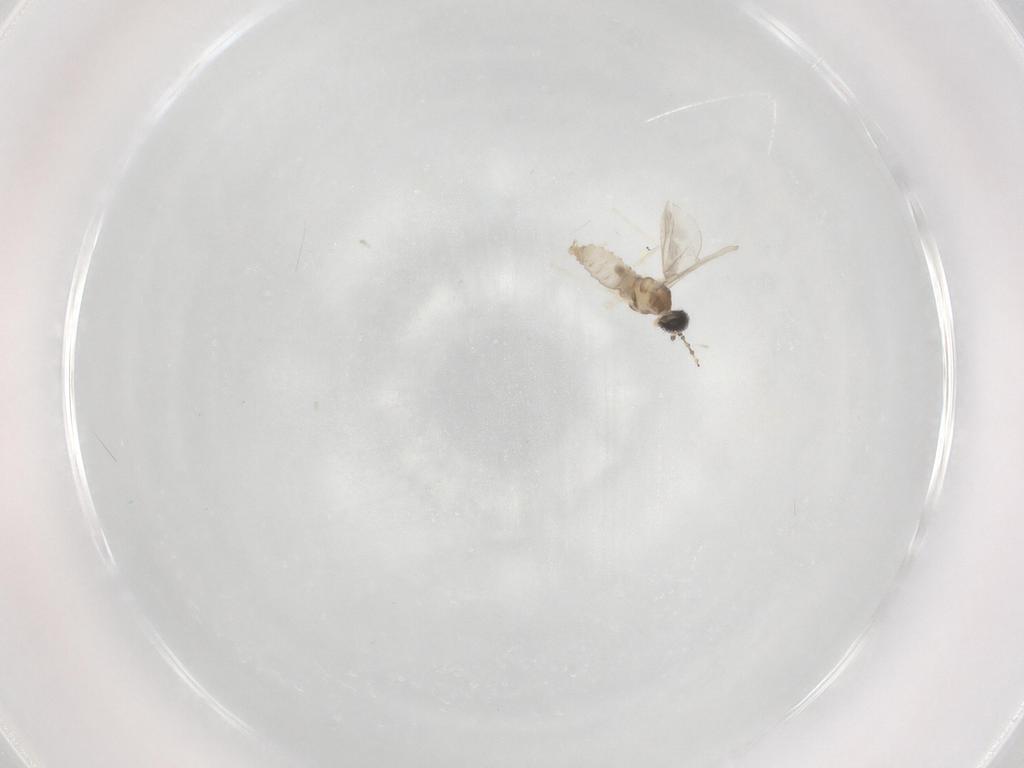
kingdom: Animalia
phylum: Arthropoda
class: Insecta
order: Diptera
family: Cecidomyiidae
